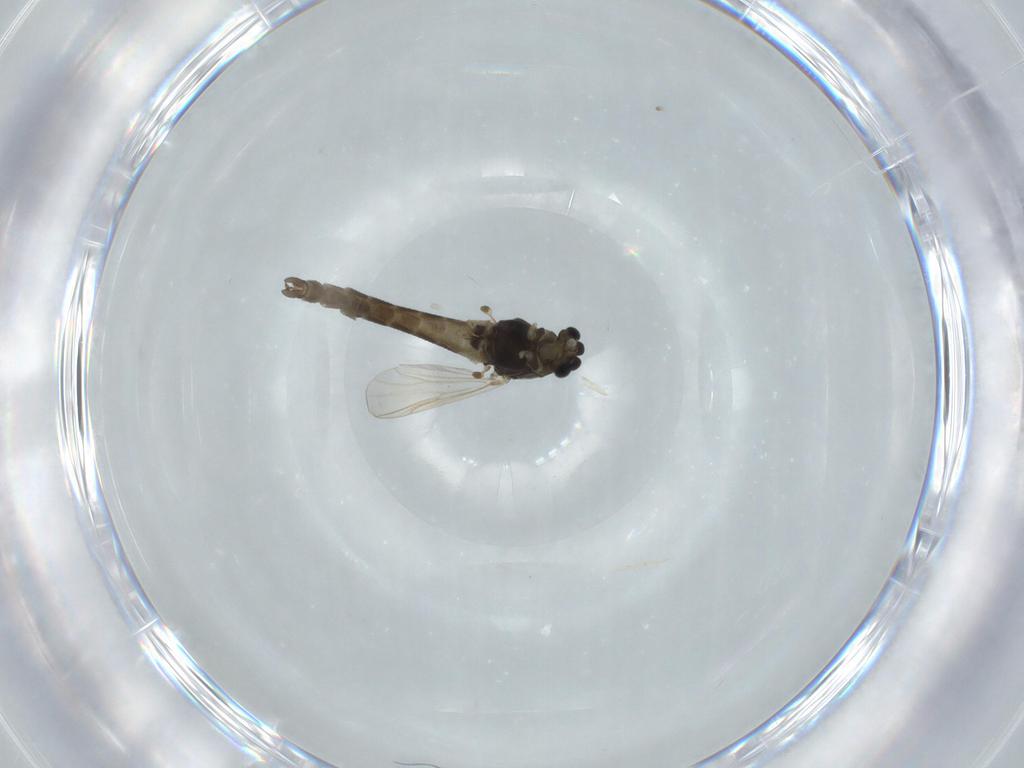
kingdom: Animalia
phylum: Arthropoda
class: Insecta
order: Diptera
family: Chironomidae
